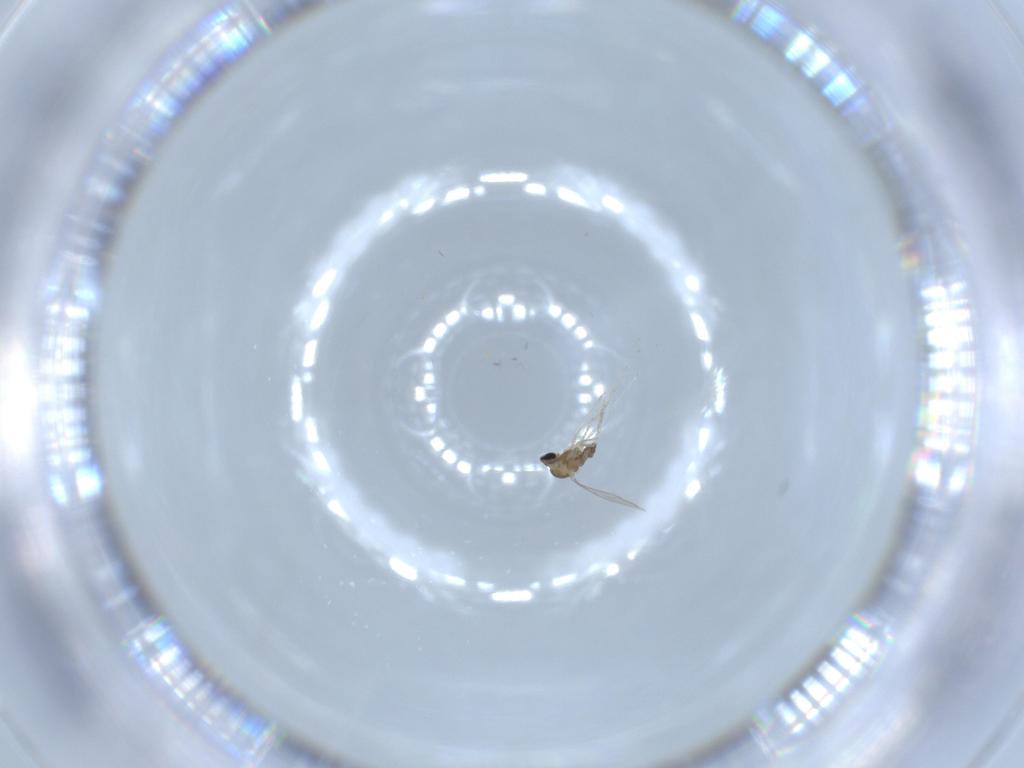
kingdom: Animalia
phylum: Arthropoda
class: Insecta
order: Diptera
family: Cecidomyiidae
